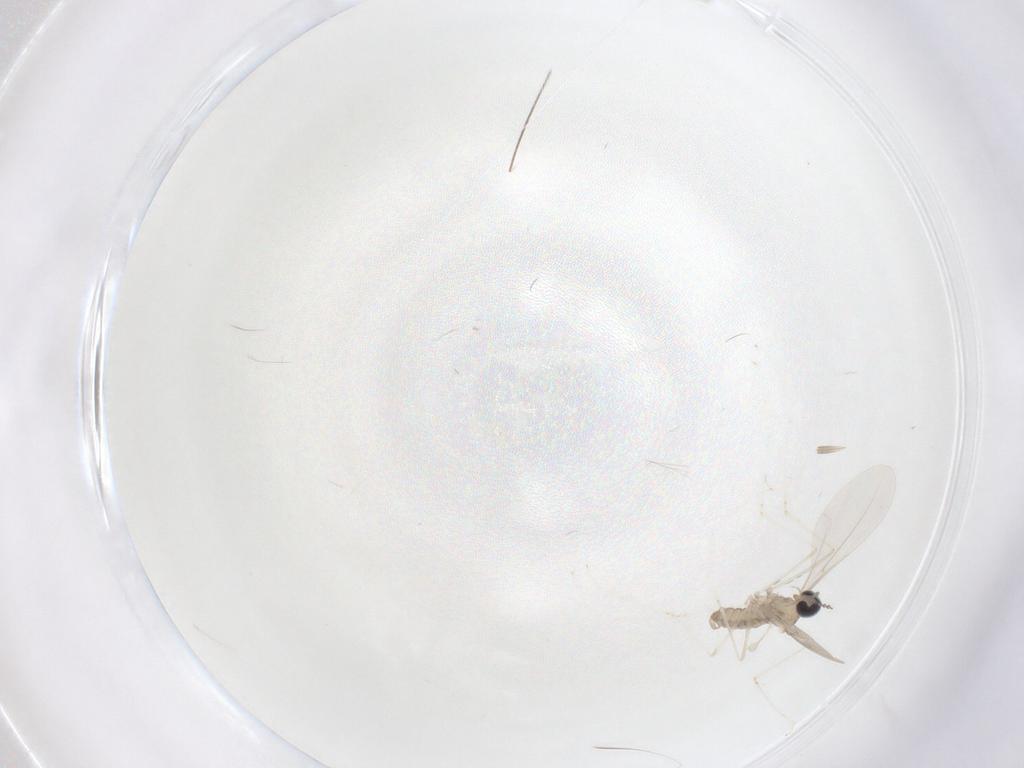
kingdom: Animalia
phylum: Arthropoda
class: Insecta
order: Diptera
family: Cecidomyiidae
